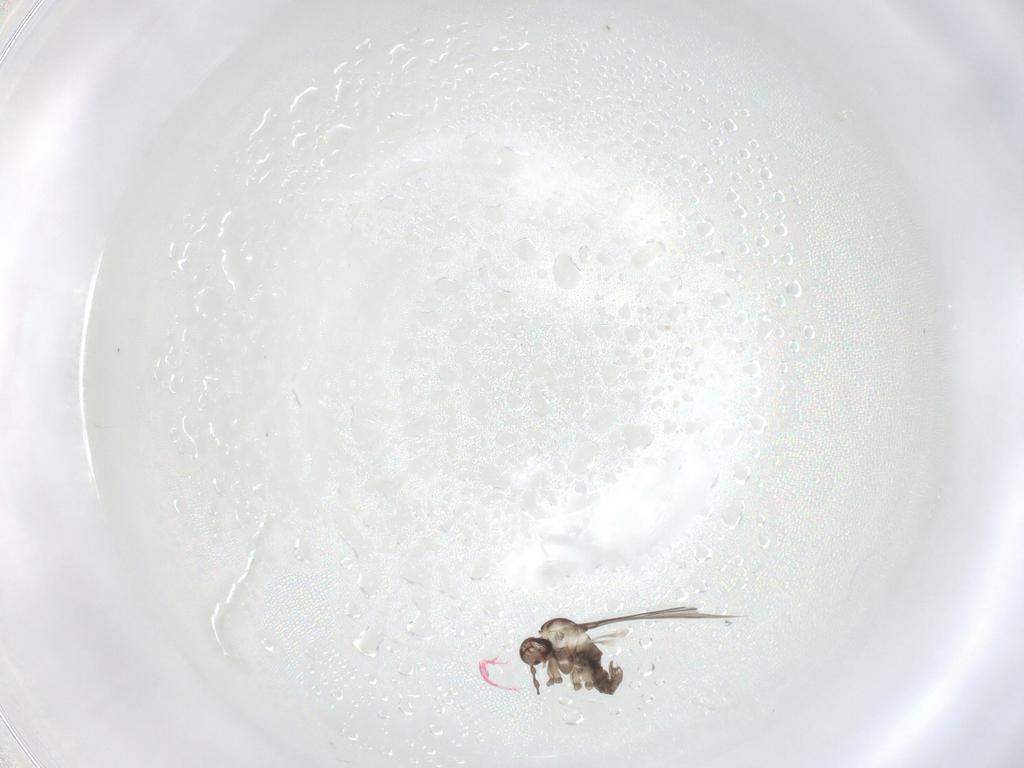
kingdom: Animalia
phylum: Arthropoda
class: Insecta
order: Diptera
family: Cecidomyiidae
